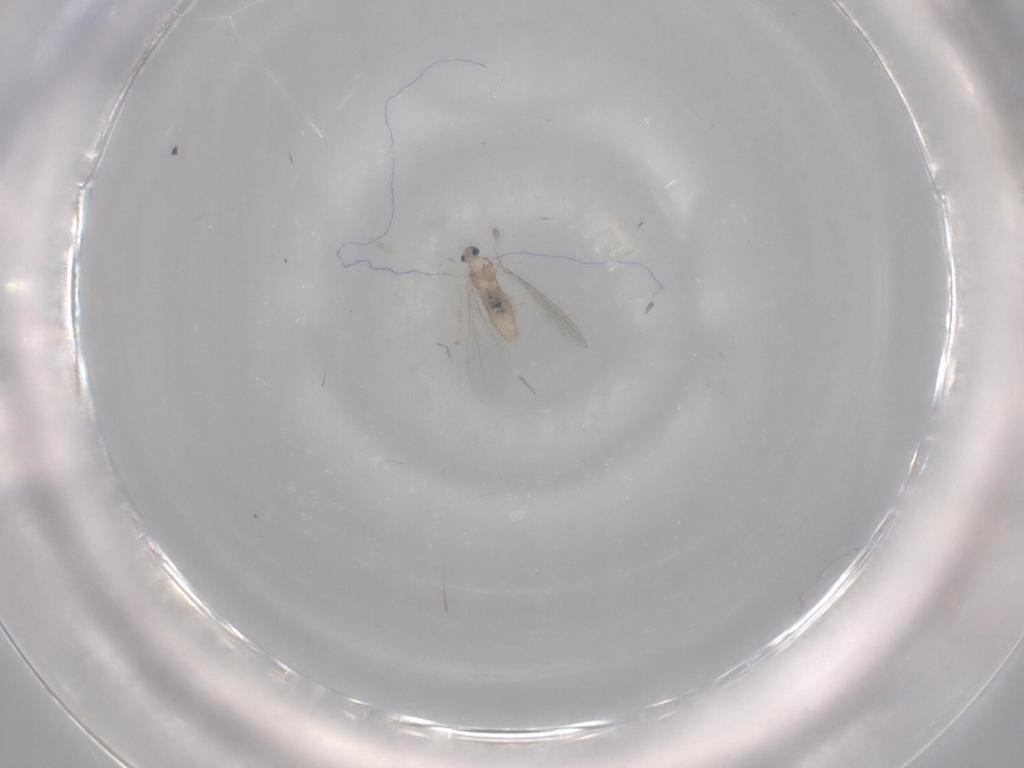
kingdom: Animalia
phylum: Arthropoda
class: Insecta
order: Diptera
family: Cecidomyiidae
